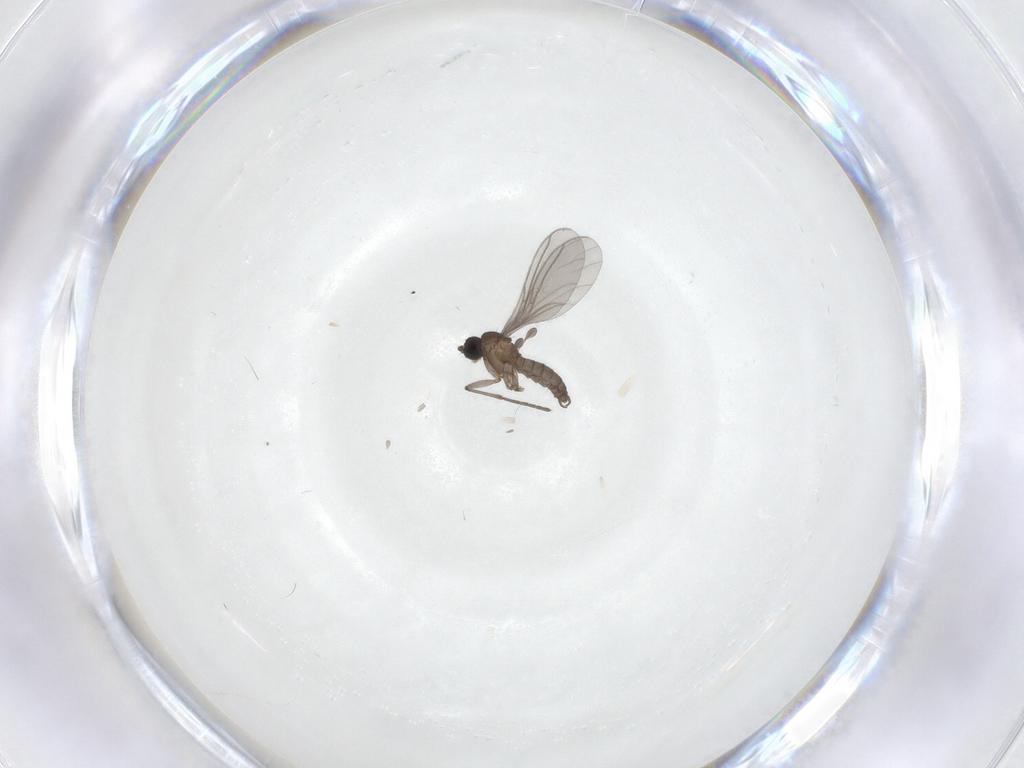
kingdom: Animalia
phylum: Arthropoda
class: Insecta
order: Diptera
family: Sciaridae
